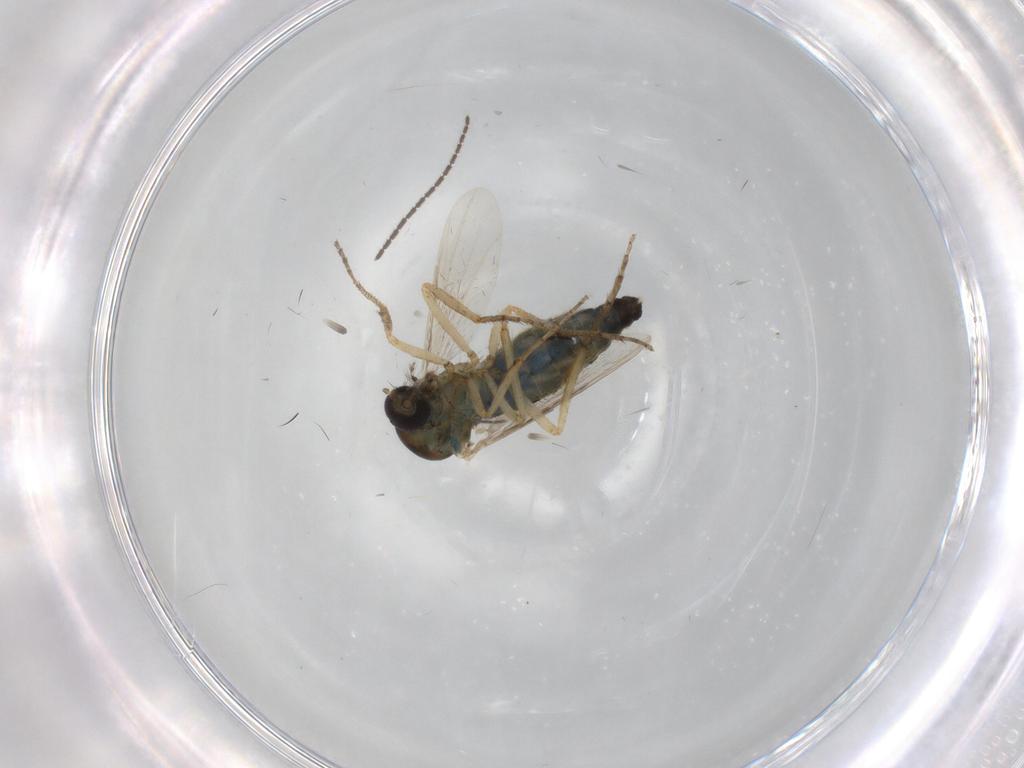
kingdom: Animalia
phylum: Arthropoda
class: Insecta
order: Diptera
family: Ceratopogonidae
